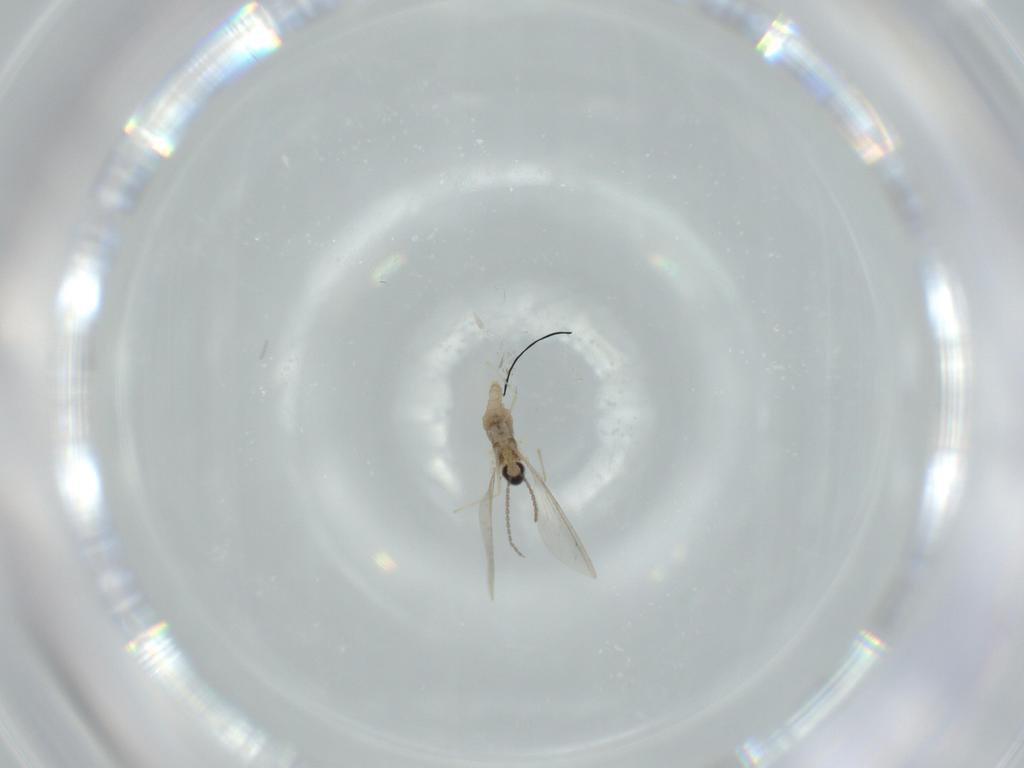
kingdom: Animalia
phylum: Arthropoda
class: Insecta
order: Diptera
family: Cecidomyiidae
